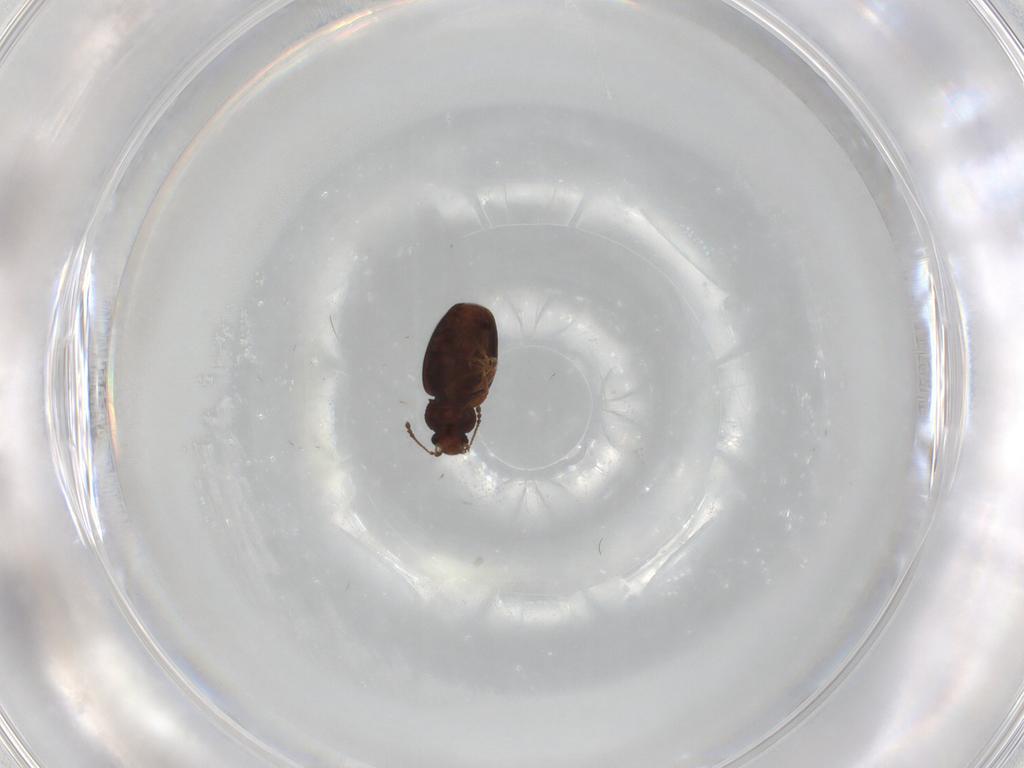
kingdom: Animalia
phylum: Arthropoda
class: Insecta
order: Coleoptera
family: Latridiidae
